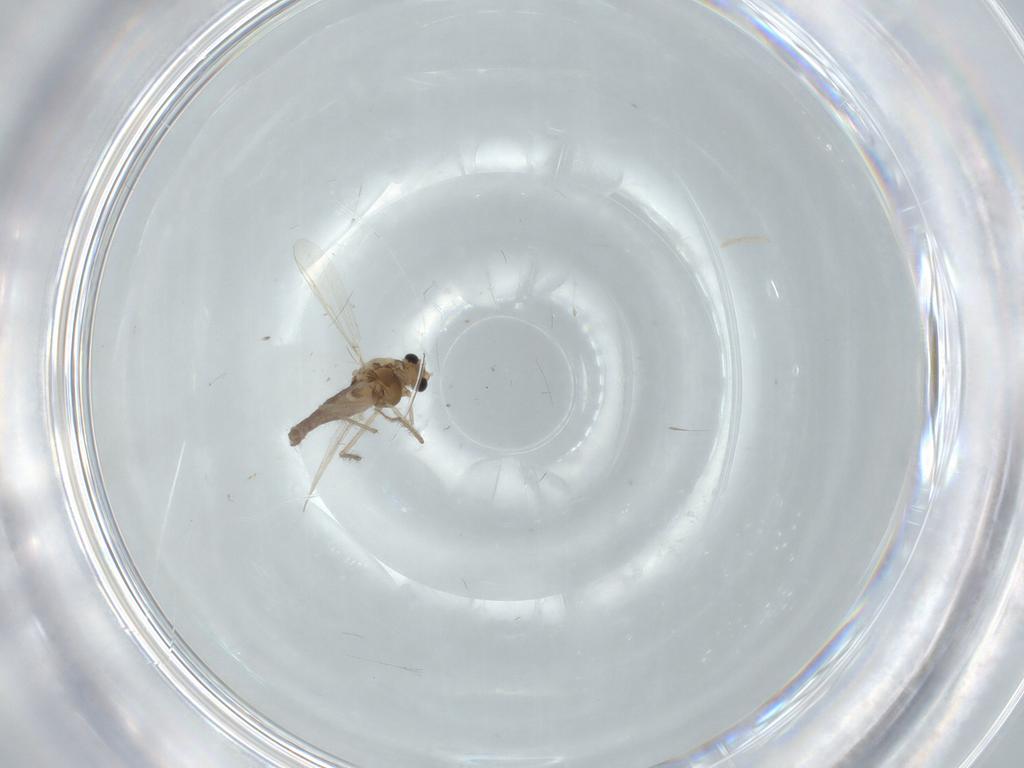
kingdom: Animalia
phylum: Arthropoda
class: Insecta
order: Diptera
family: Chironomidae
